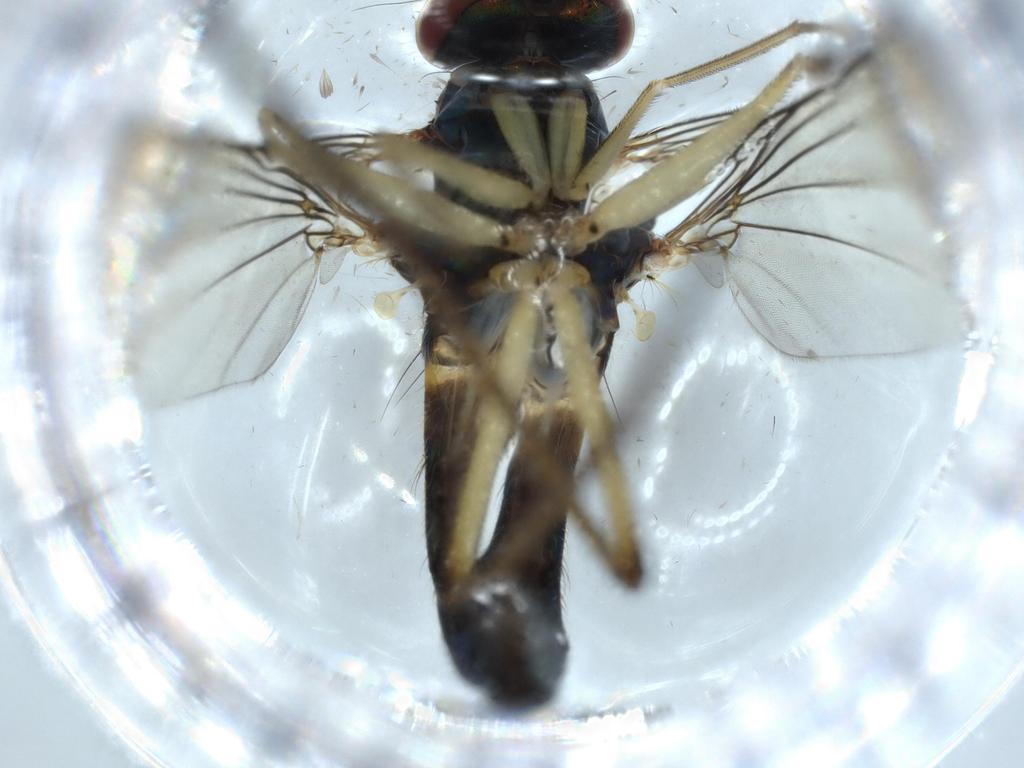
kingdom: Animalia
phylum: Arthropoda
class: Insecta
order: Diptera
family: Dolichopodidae
